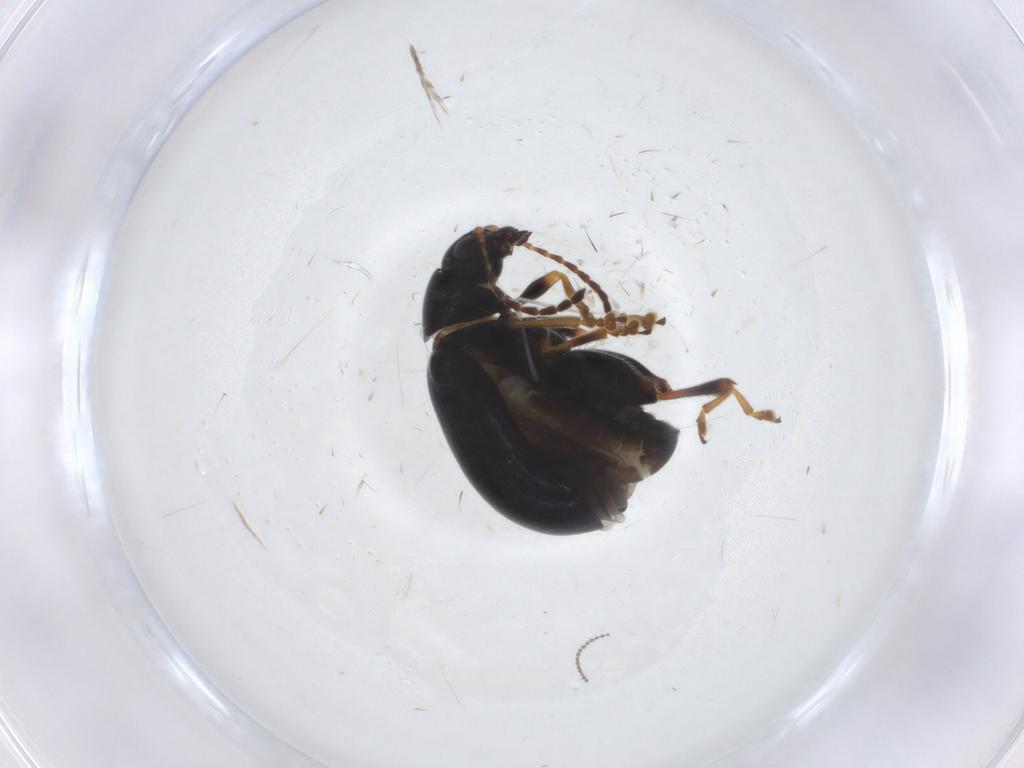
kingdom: Animalia
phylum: Arthropoda
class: Insecta
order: Coleoptera
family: Chrysomelidae
